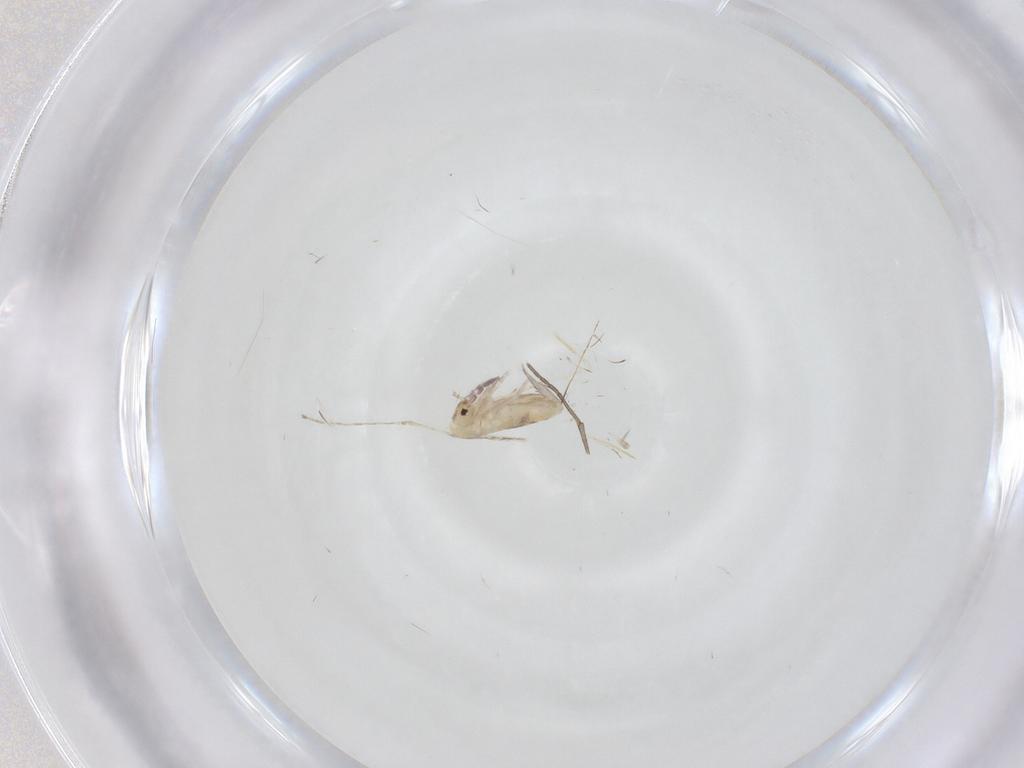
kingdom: Animalia
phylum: Arthropoda
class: Collembola
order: Entomobryomorpha
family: Entomobryidae
